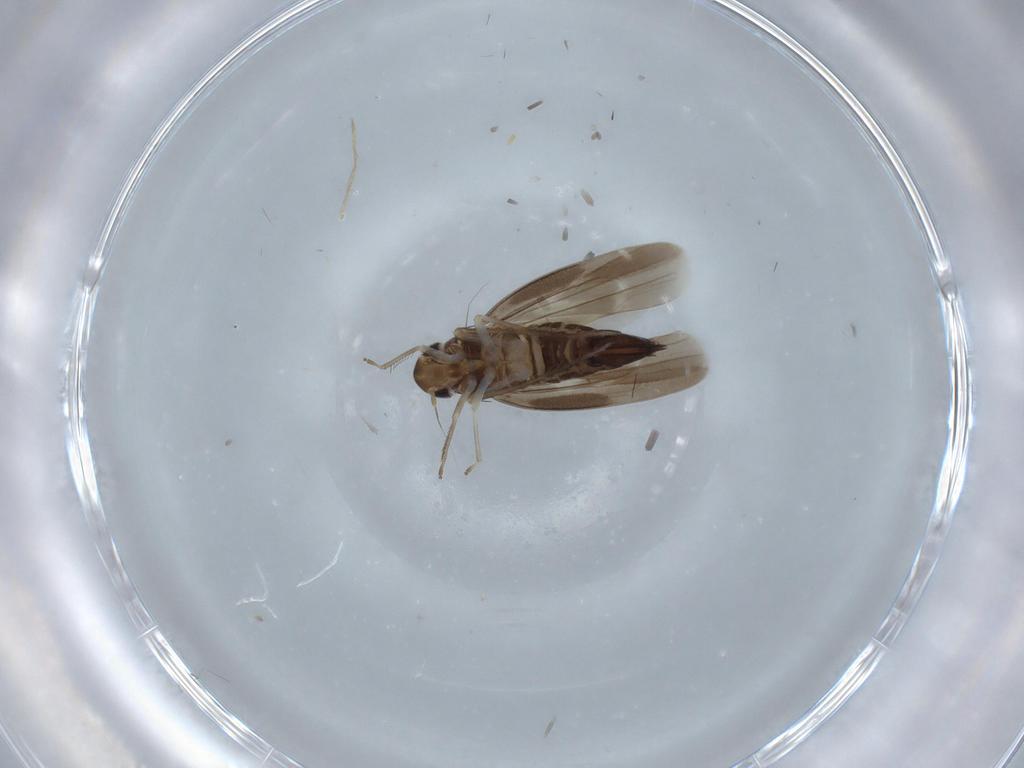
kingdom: Animalia
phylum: Arthropoda
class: Insecta
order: Hemiptera
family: Cicadellidae
